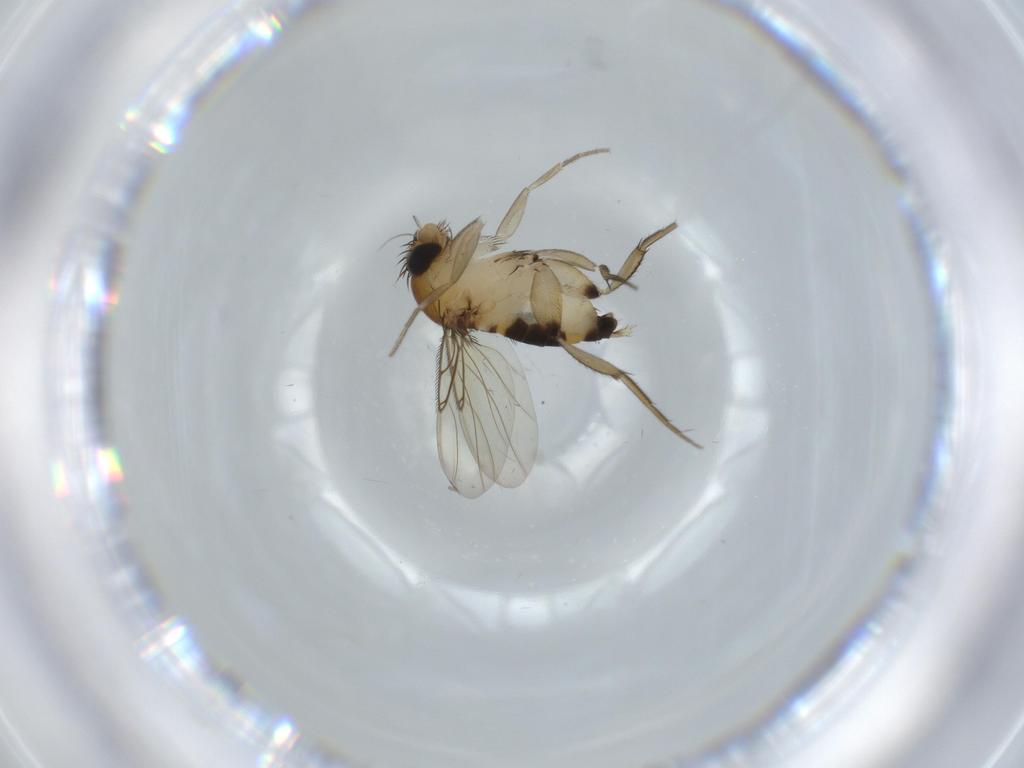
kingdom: Animalia
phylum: Arthropoda
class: Insecta
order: Diptera
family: Phoridae
